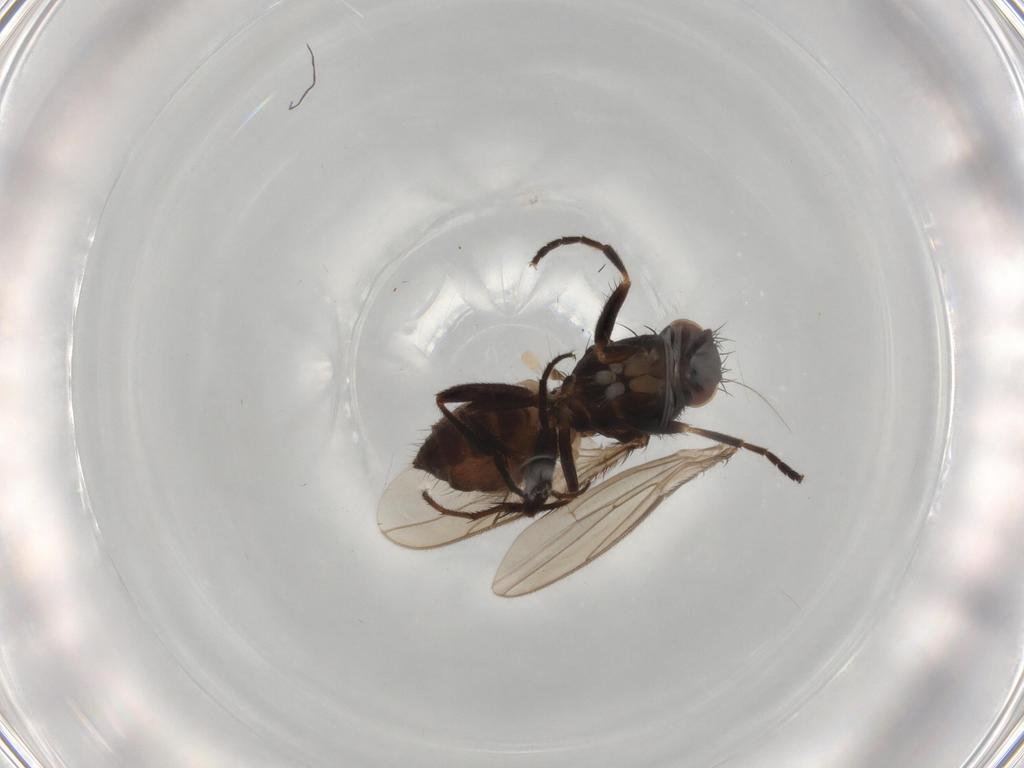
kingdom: Animalia
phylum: Arthropoda
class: Insecta
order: Diptera
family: Sphaeroceridae
